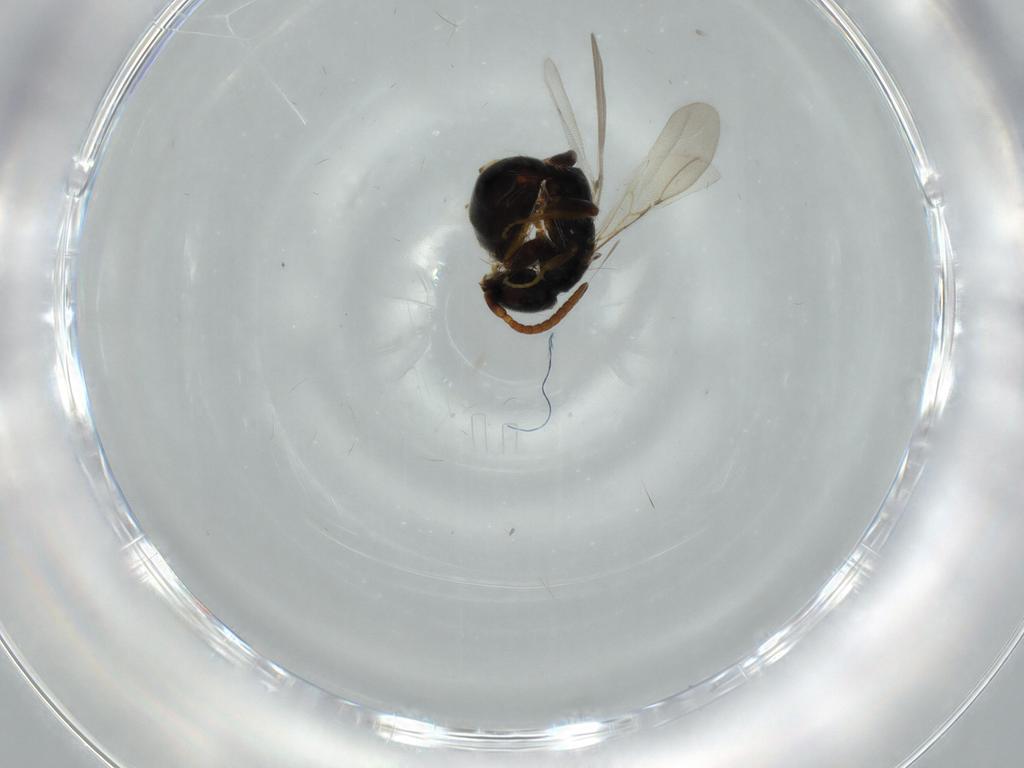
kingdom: Animalia
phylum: Arthropoda
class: Insecta
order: Hymenoptera
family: Bethylidae
